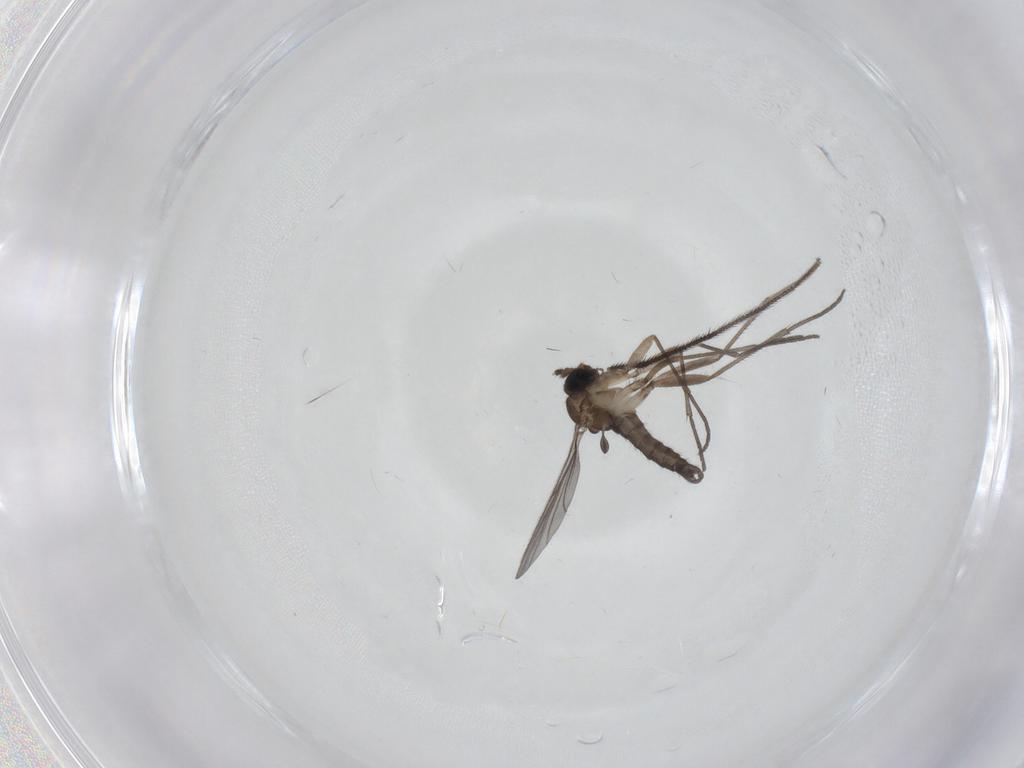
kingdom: Animalia
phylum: Arthropoda
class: Insecta
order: Diptera
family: Sciaridae
